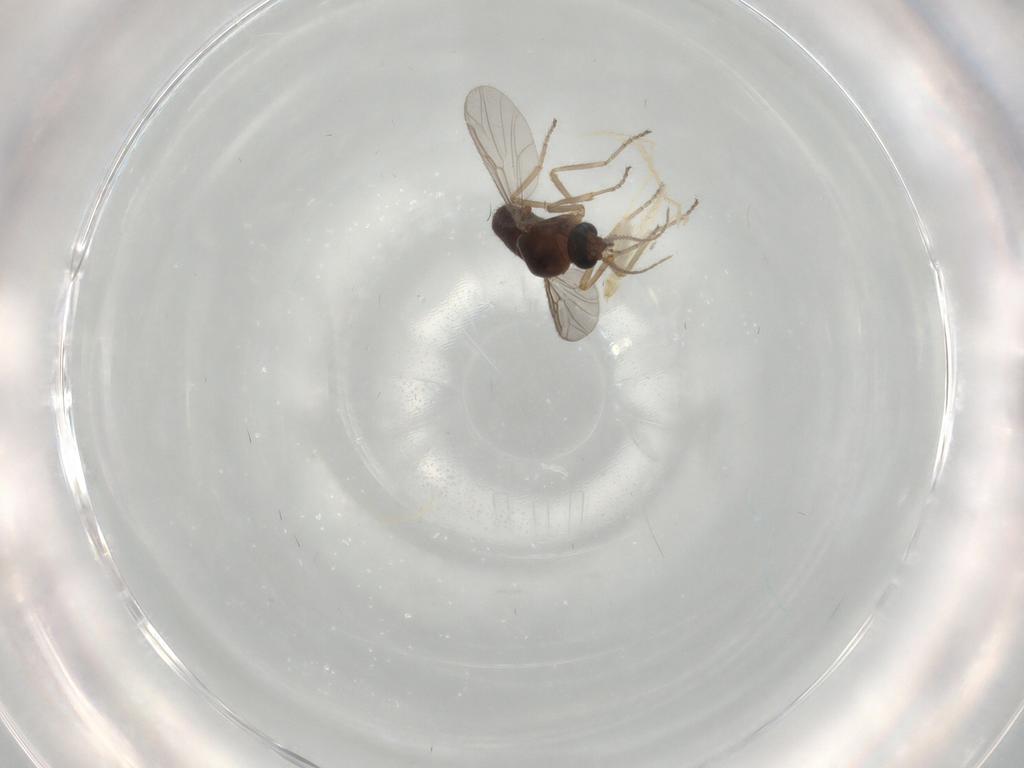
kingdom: Animalia
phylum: Arthropoda
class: Insecta
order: Diptera
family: Ceratopogonidae
